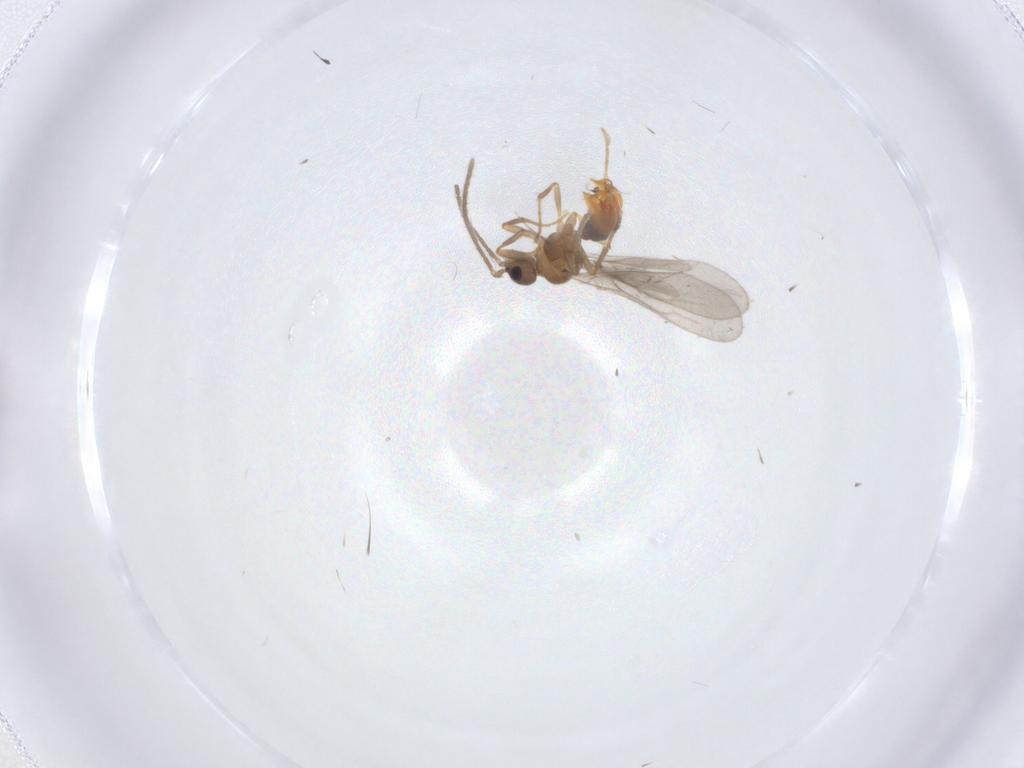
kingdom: Animalia
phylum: Arthropoda
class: Insecta
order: Hymenoptera
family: Formicidae
